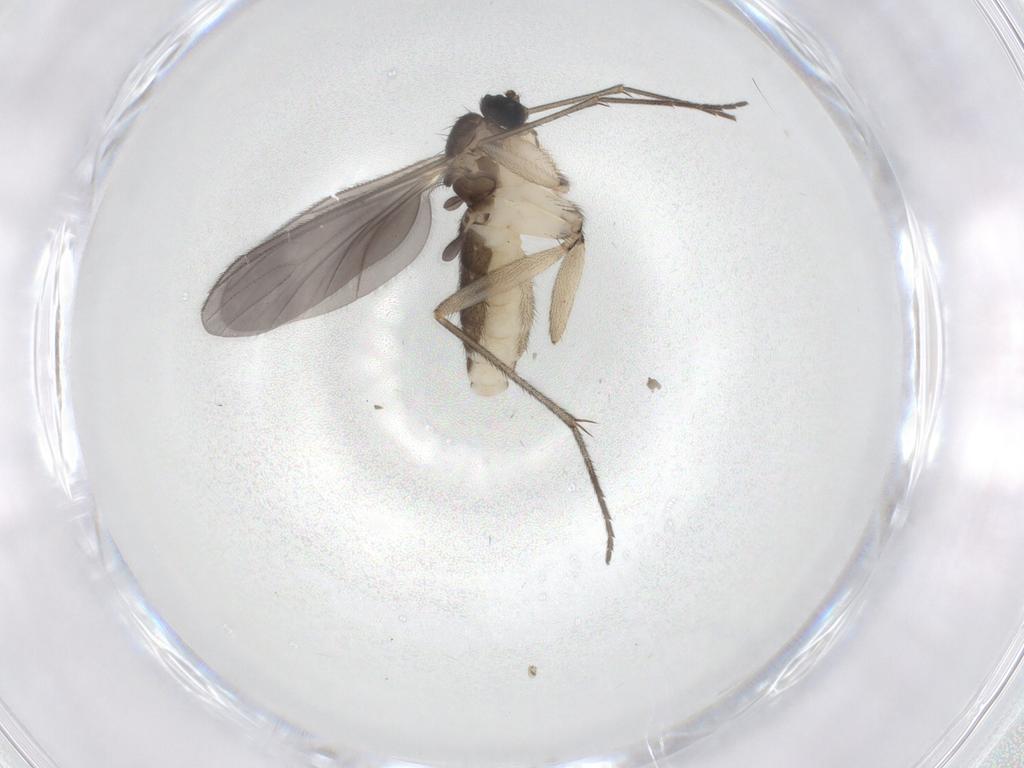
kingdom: Animalia
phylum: Arthropoda
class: Insecta
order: Diptera
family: Sciaridae
